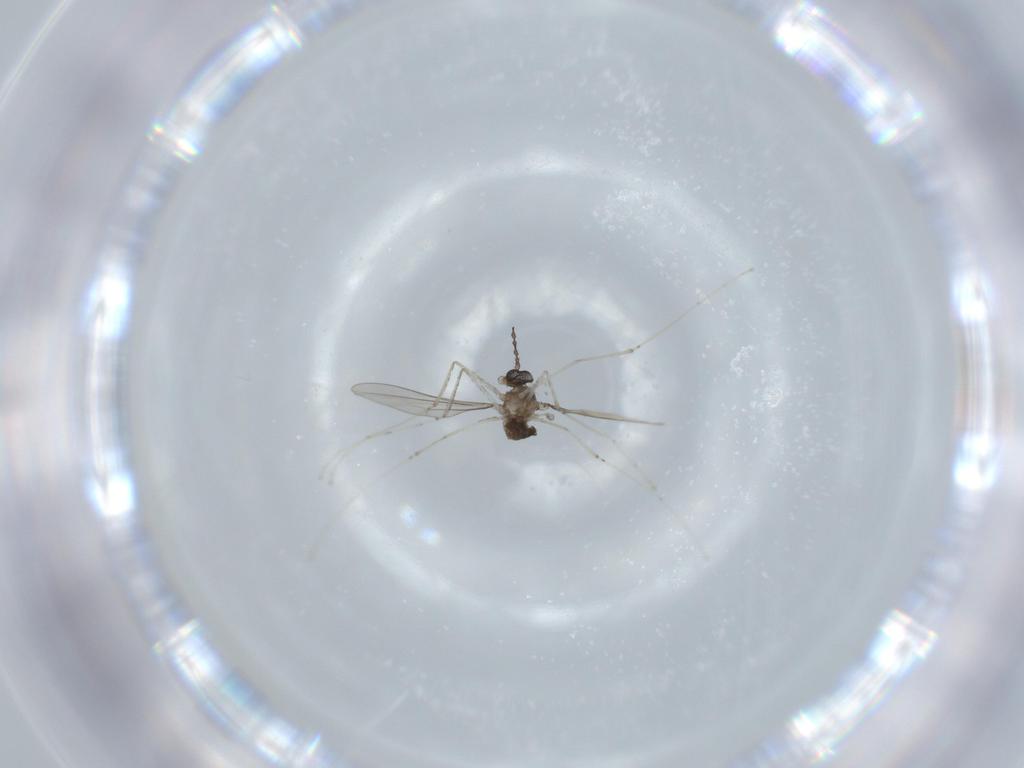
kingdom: Animalia
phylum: Arthropoda
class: Insecta
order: Diptera
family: Cecidomyiidae
